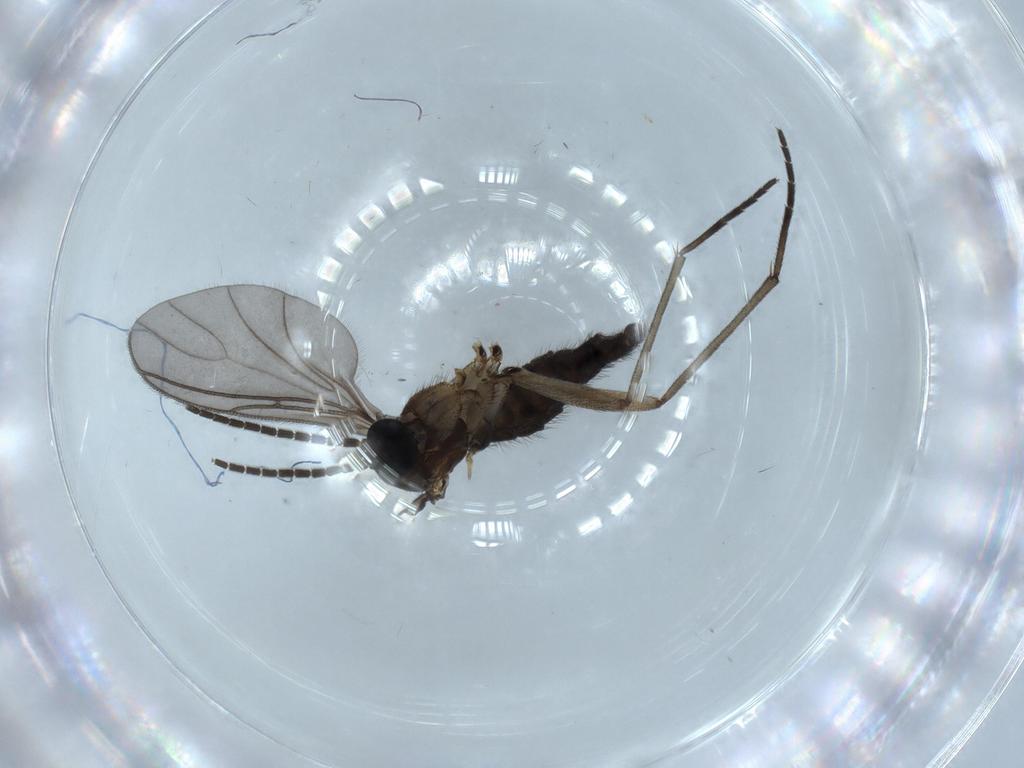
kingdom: Animalia
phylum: Arthropoda
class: Insecta
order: Diptera
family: Sciaridae
